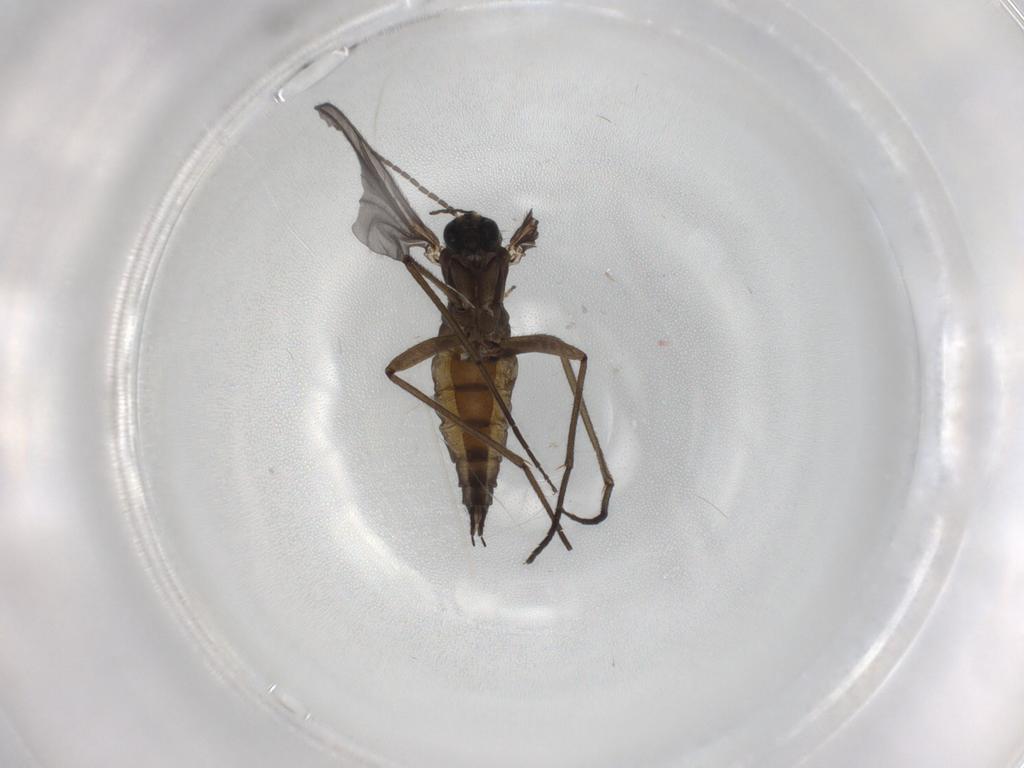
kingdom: Animalia
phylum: Arthropoda
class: Insecta
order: Diptera
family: Sciaridae
